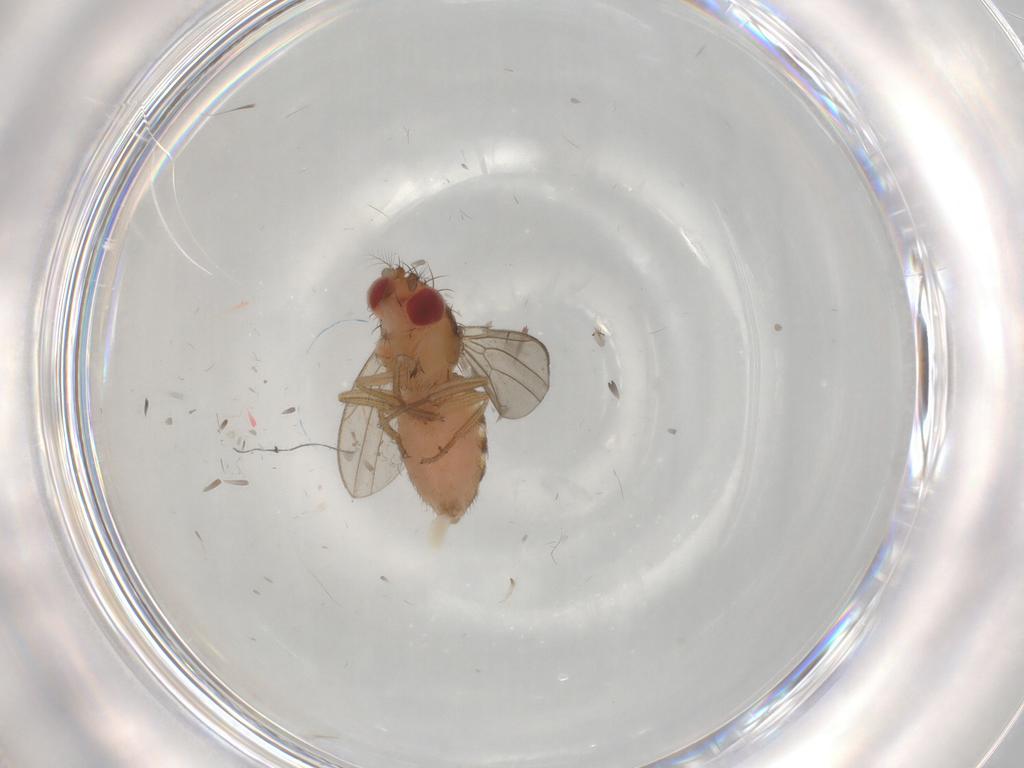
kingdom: Animalia
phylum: Arthropoda
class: Insecta
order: Diptera
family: Drosophilidae
